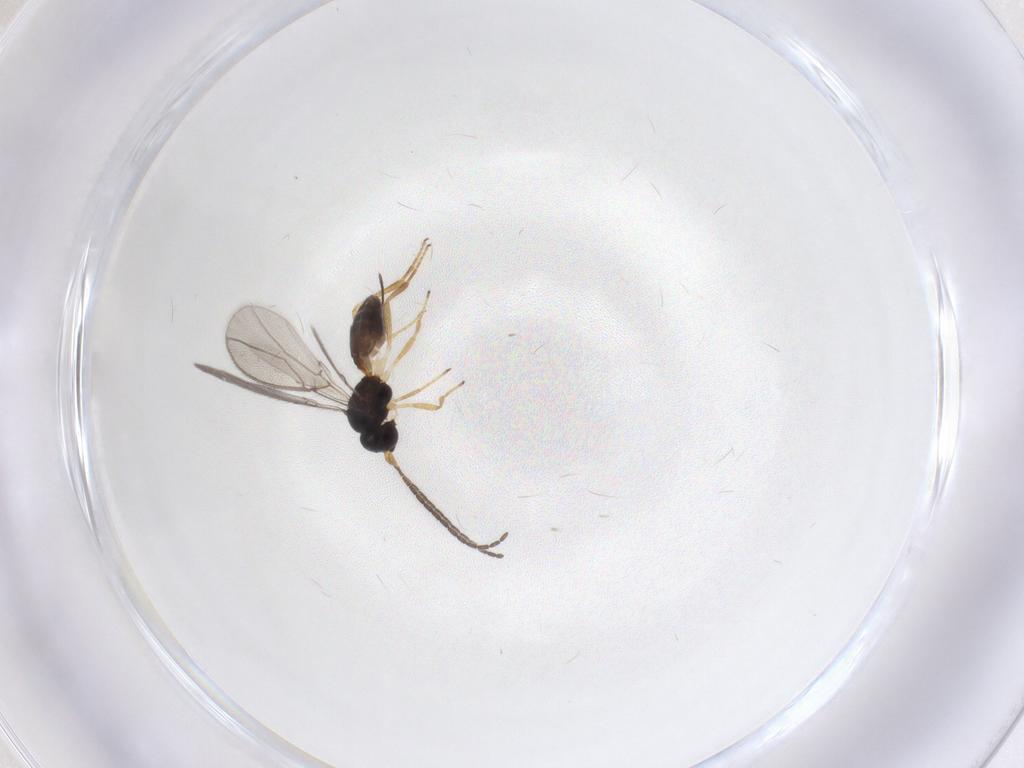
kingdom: Animalia
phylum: Arthropoda
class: Insecta
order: Hymenoptera
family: Braconidae
